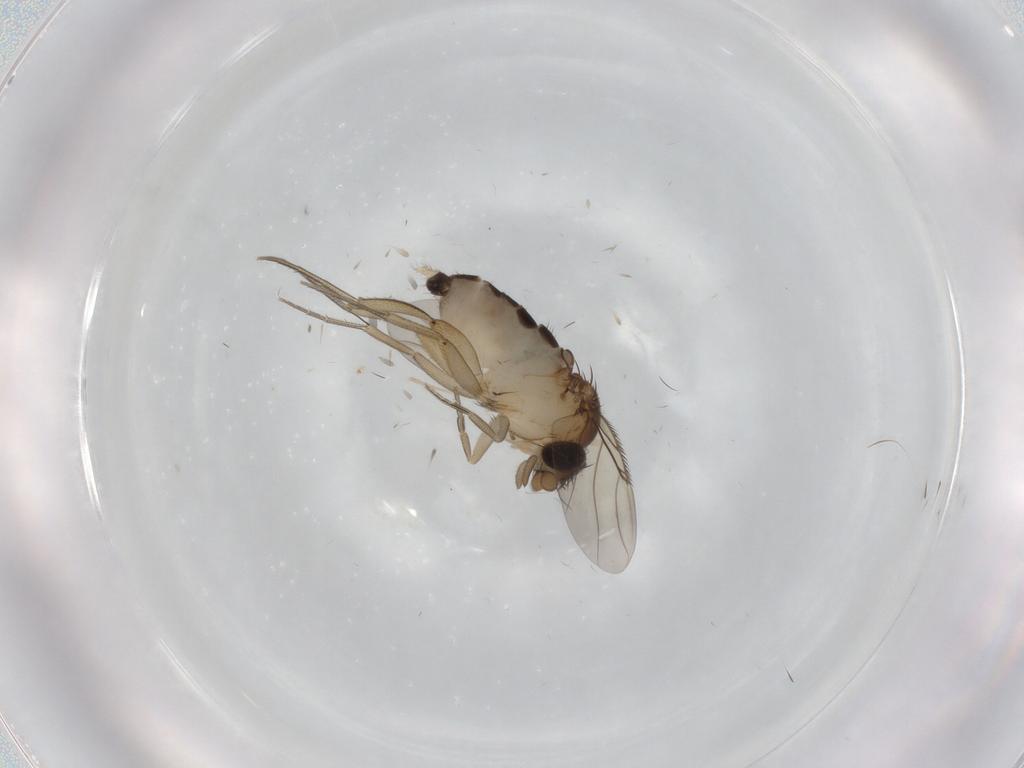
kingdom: Animalia
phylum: Arthropoda
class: Insecta
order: Diptera
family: Phoridae
